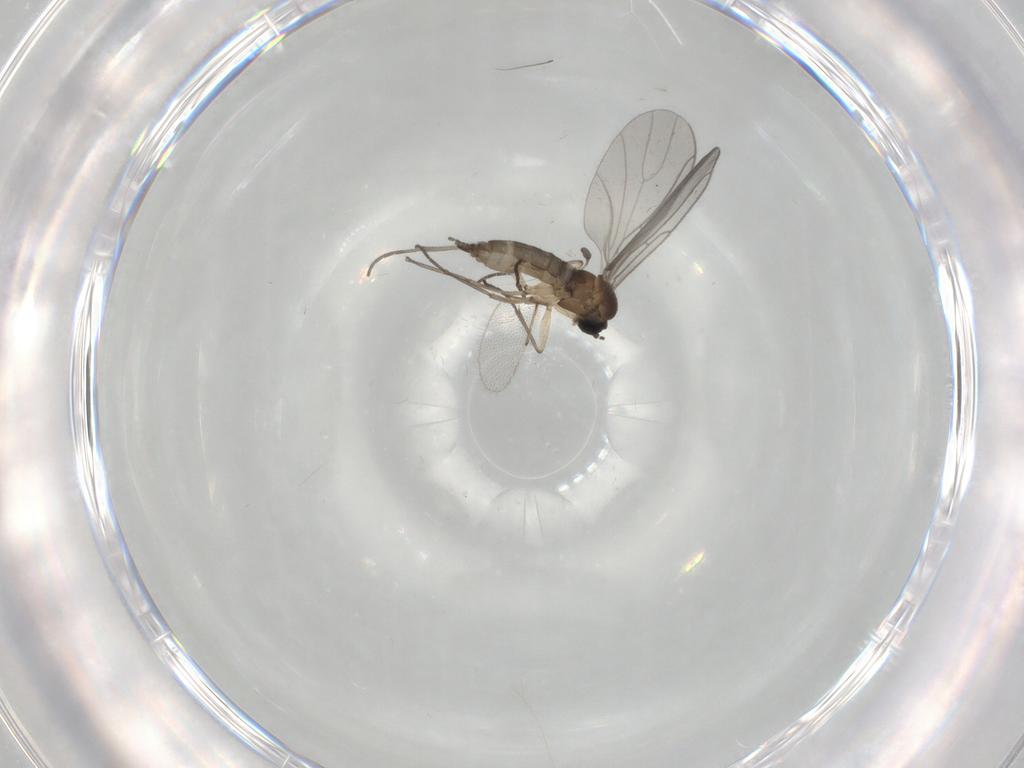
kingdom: Animalia
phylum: Arthropoda
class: Insecta
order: Diptera
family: Sciaridae
